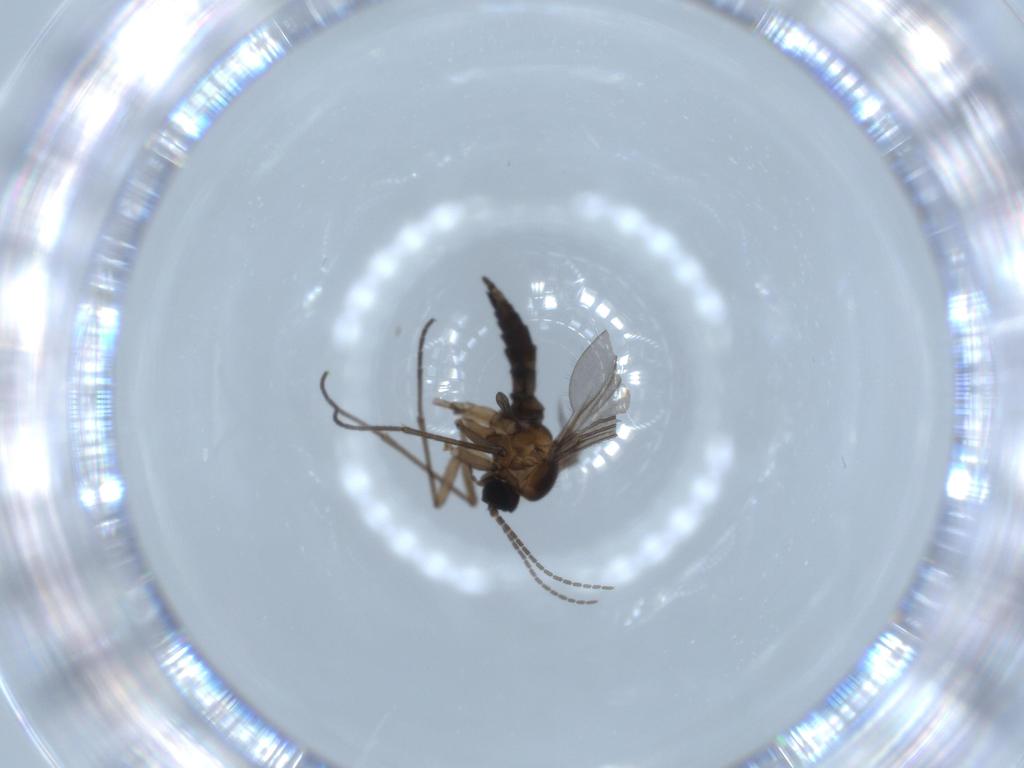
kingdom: Animalia
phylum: Arthropoda
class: Insecta
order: Diptera
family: Sciaridae
